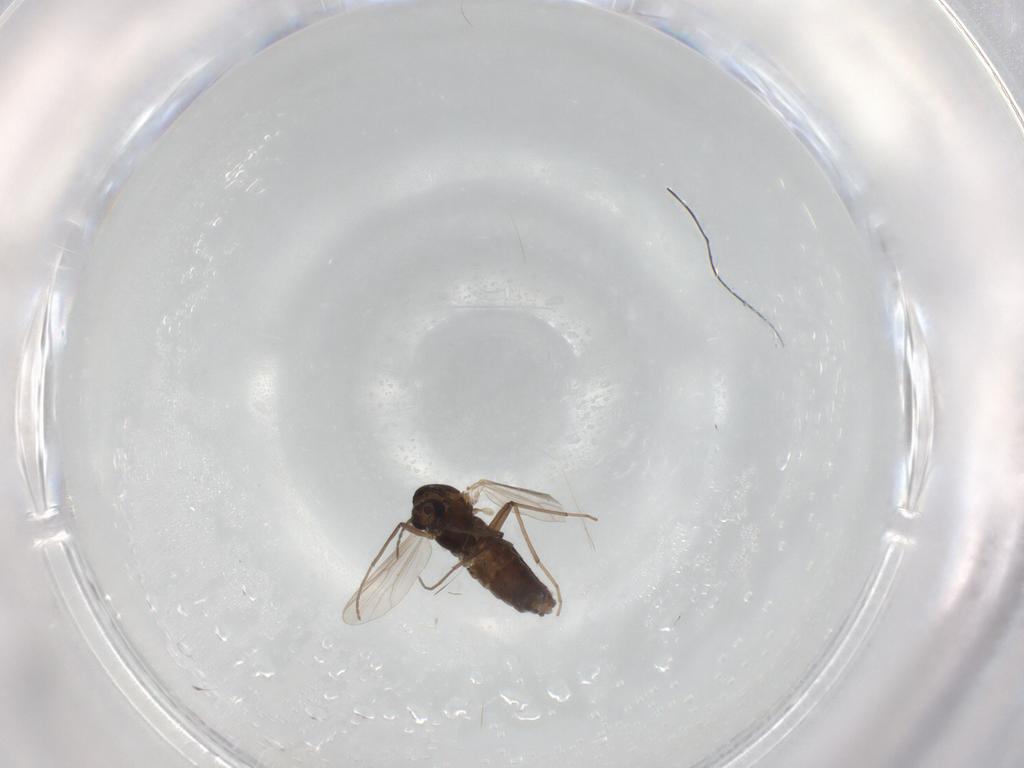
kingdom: Animalia
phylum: Arthropoda
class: Insecta
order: Diptera
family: Chironomidae
